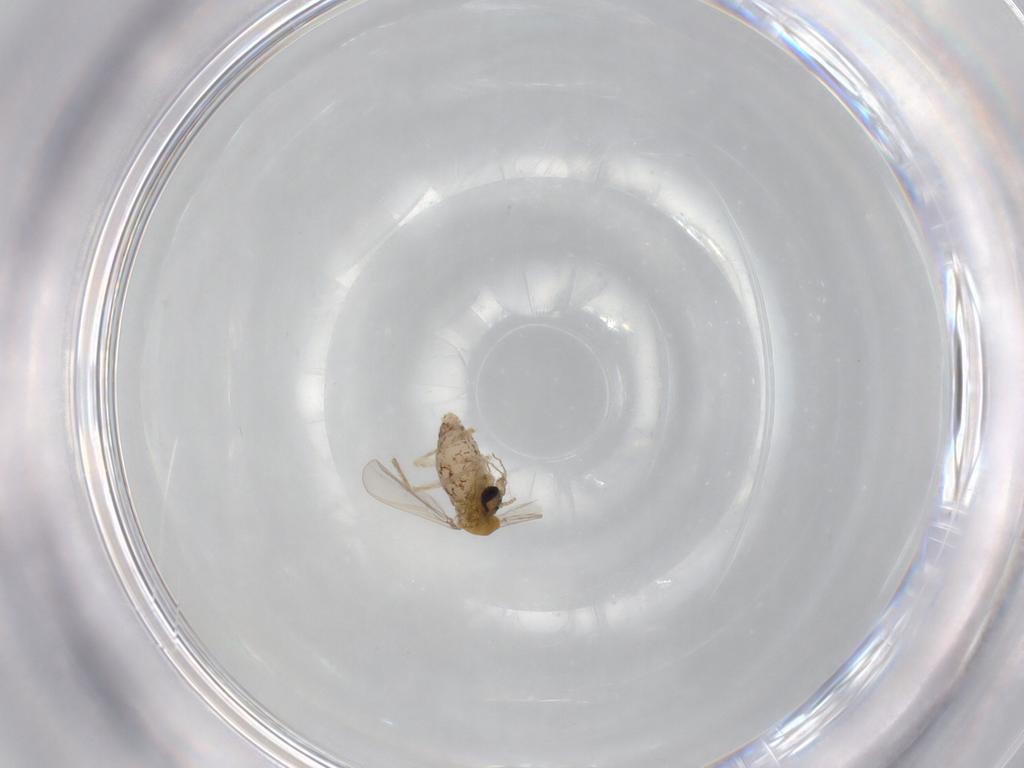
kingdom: Animalia
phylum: Arthropoda
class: Insecta
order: Diptera
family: Chironomidae
